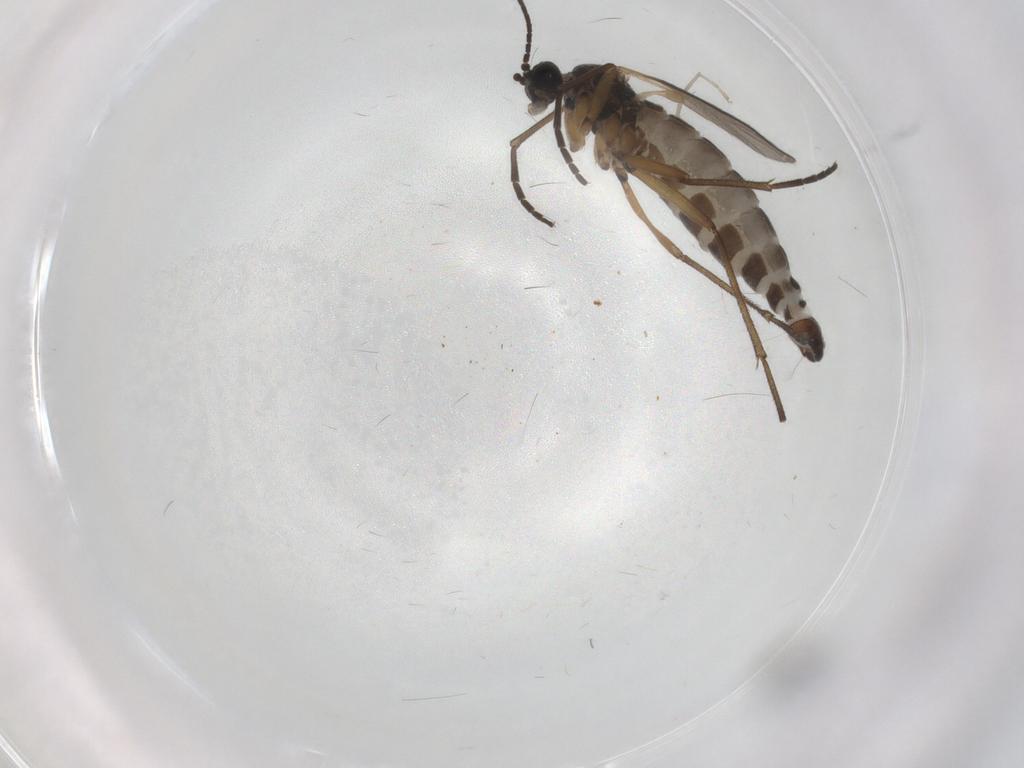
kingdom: Animalia
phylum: Arthropoda
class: Insecta
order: Diptera
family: Sciaridae
